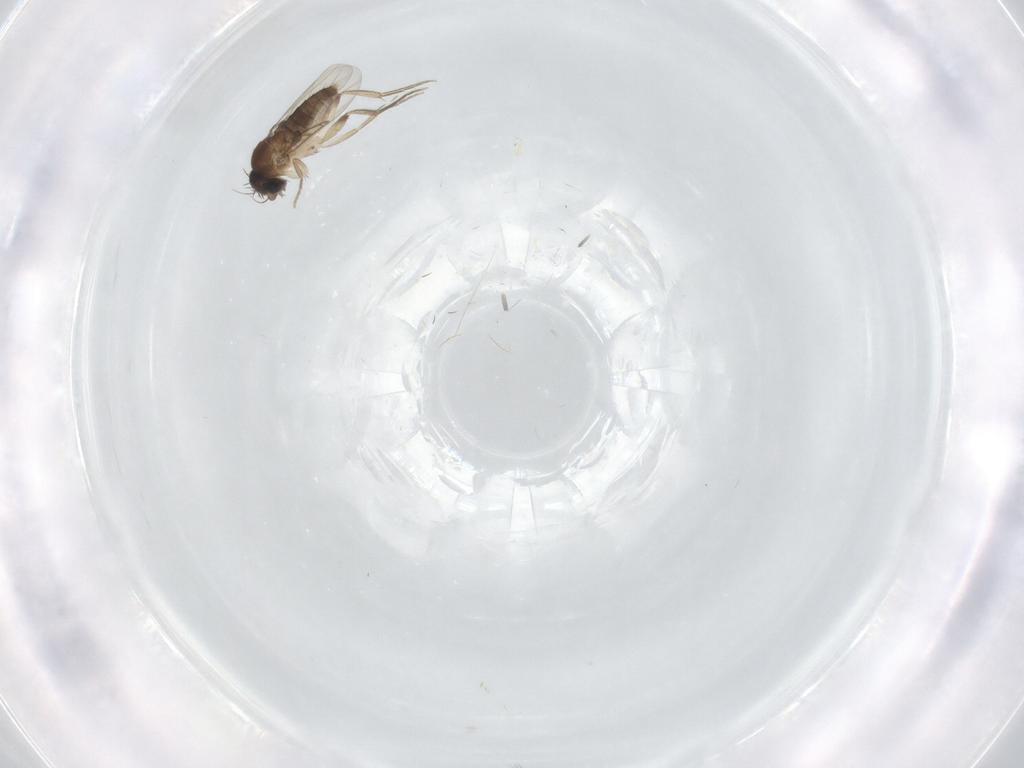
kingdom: Animalia
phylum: Arthropoda
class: Insecta
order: Diptera
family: Phoridae
